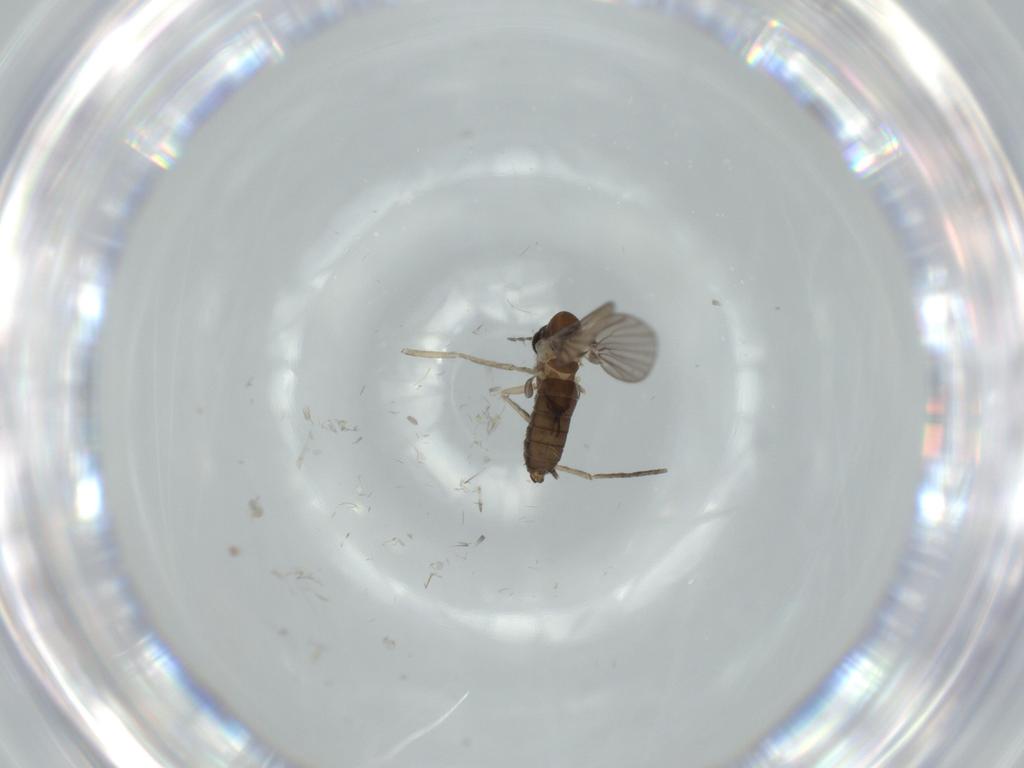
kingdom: Animalia
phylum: Arthropoda
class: Insecta
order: Diptera
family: Psychodidae
